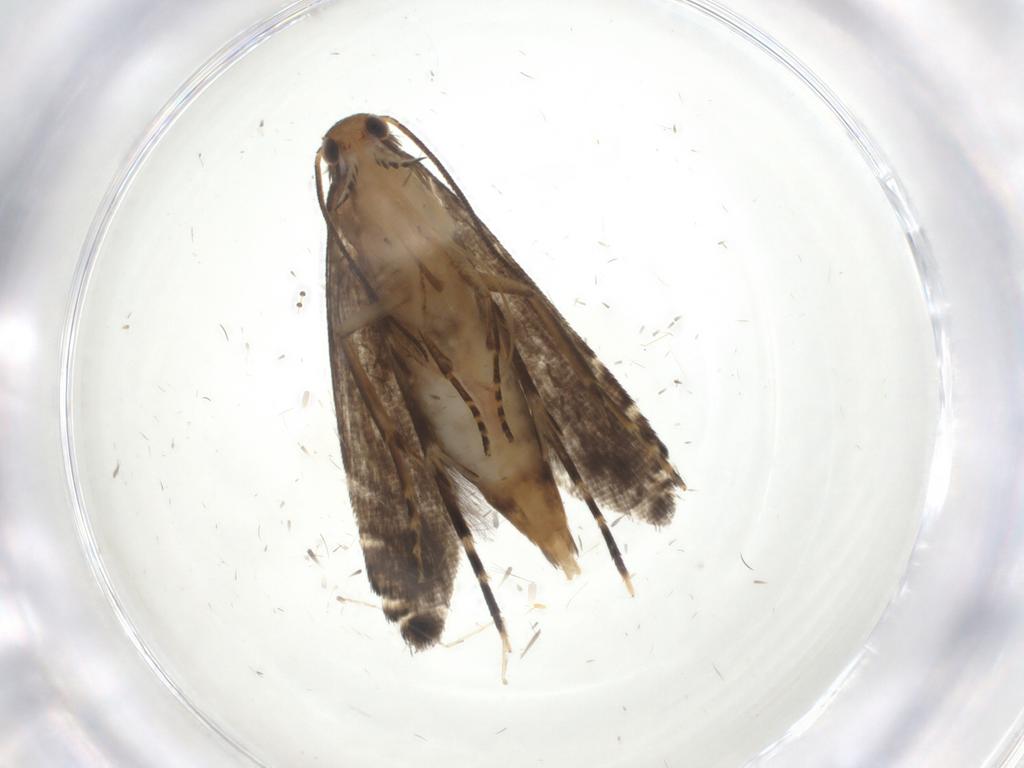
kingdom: Animalia
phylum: Arthropoda
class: Insecta
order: Lepidoptera
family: Glyphipterigidae
